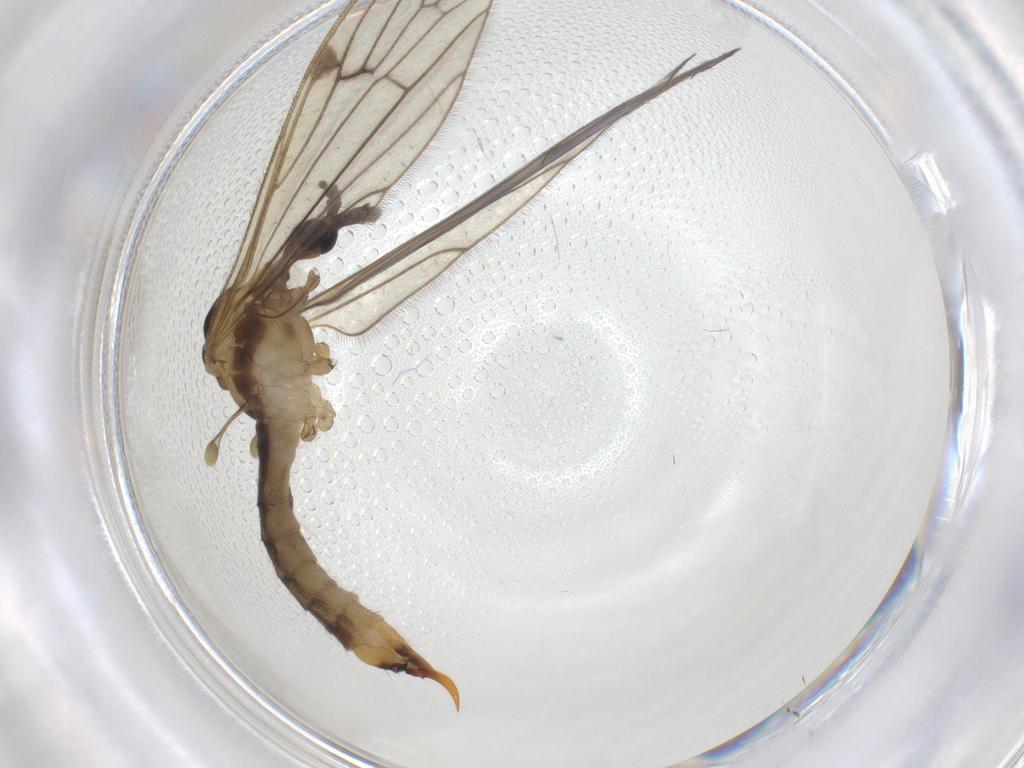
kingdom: Animalia
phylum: Arthropoda
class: Insecta
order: Diptera
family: Limoniidae
